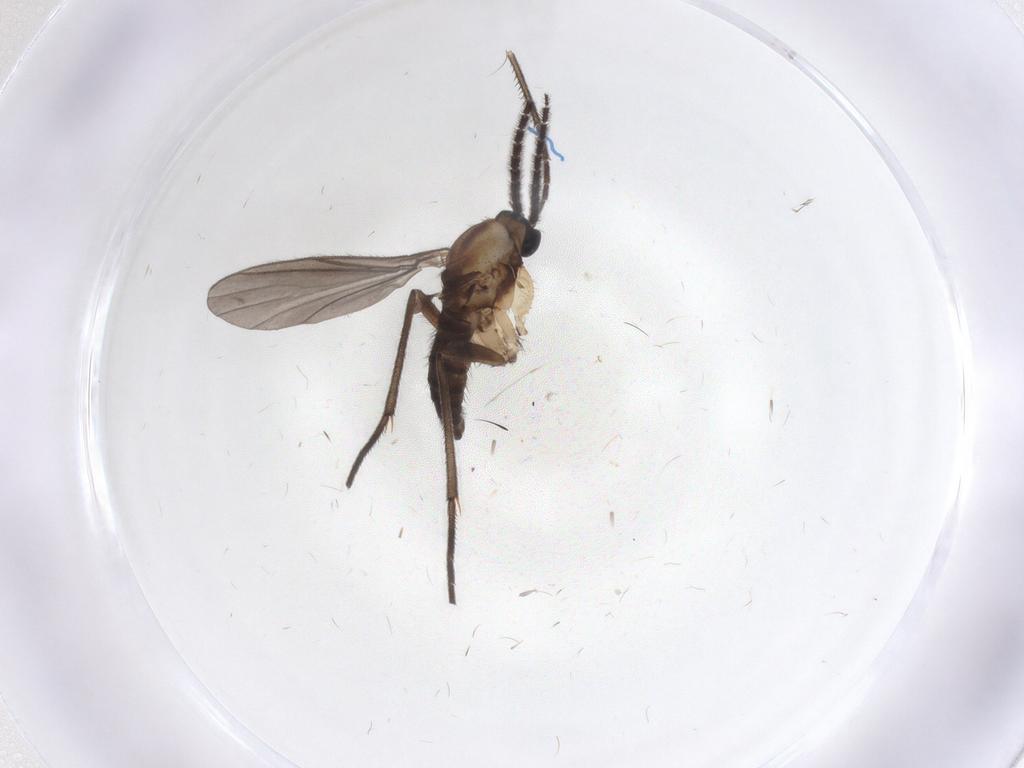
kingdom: Animalia
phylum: Arthropoda
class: Insecta
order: Diptera
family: Sciaridae
